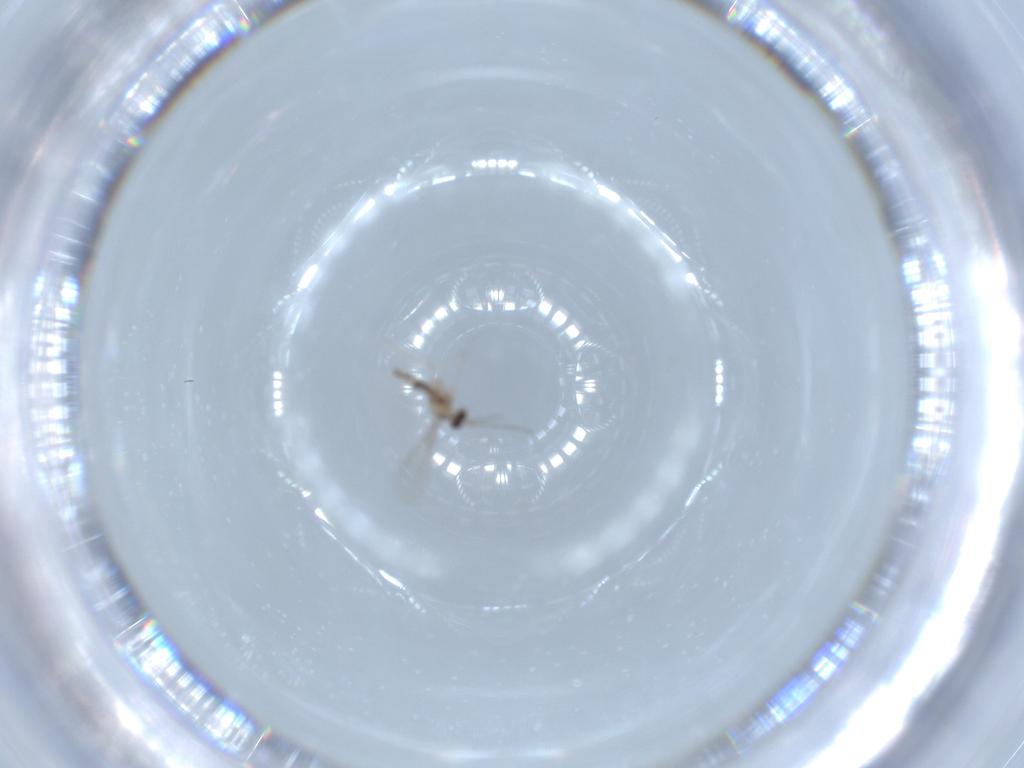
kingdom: Animalia
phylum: Arthropoda
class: Insecta
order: Diptera
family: Cecidomyiidae
